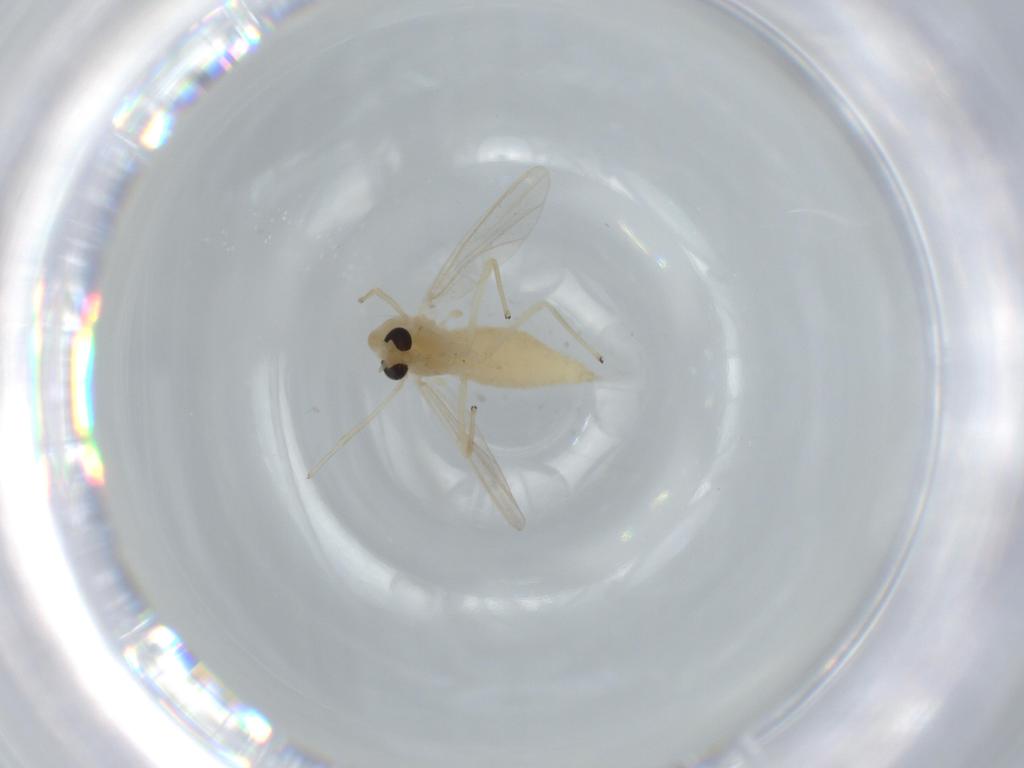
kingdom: Animalia
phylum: Arthropoda
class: Insecta
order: Diptera
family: Chironomidae
